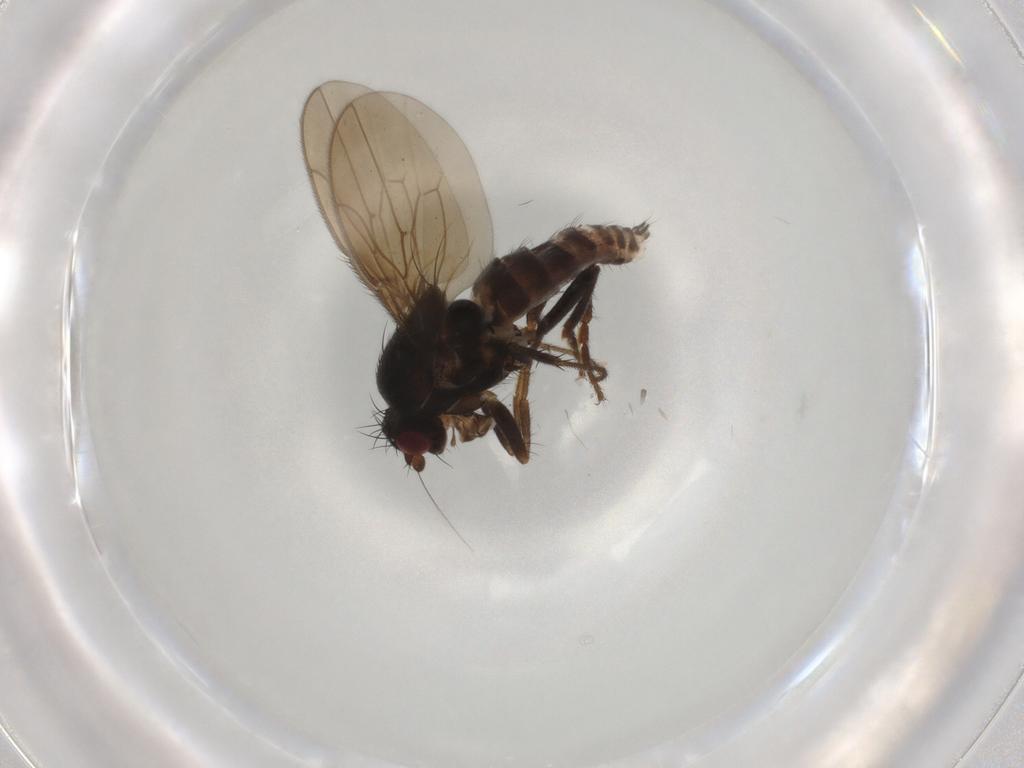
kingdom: Animalia
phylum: Arthropoda
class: Insecta
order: Diptera
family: Sphaeroceridae
